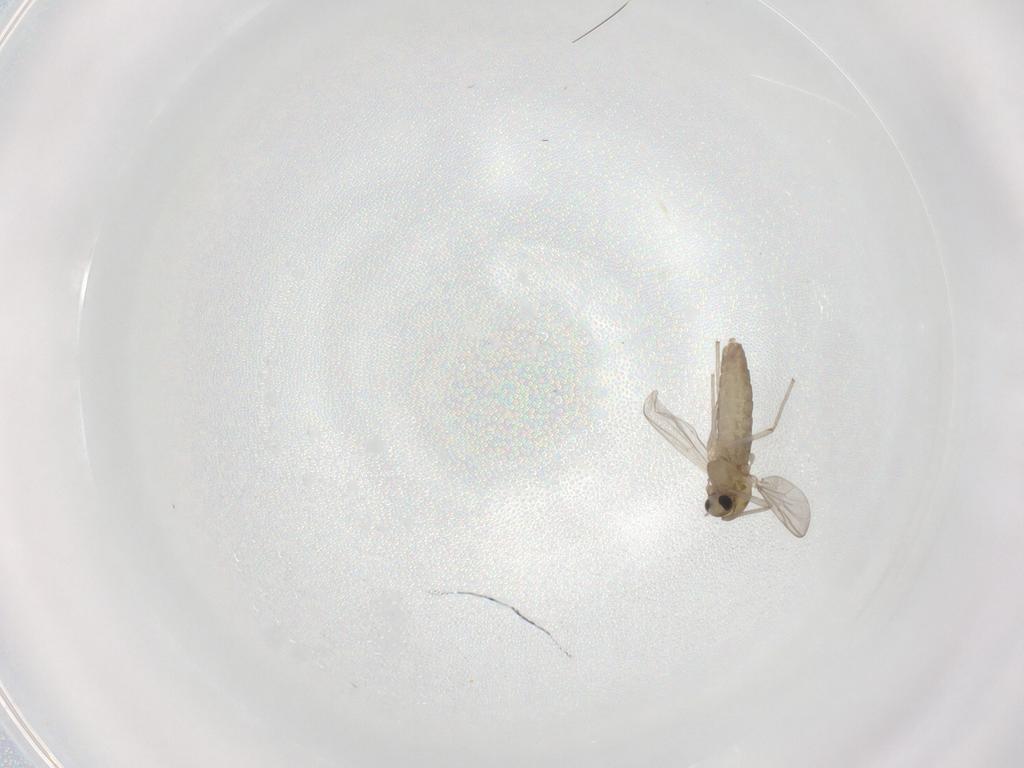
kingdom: Animalia
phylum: Arthropoda
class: Insecta
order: Diptera
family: Chironomidae
